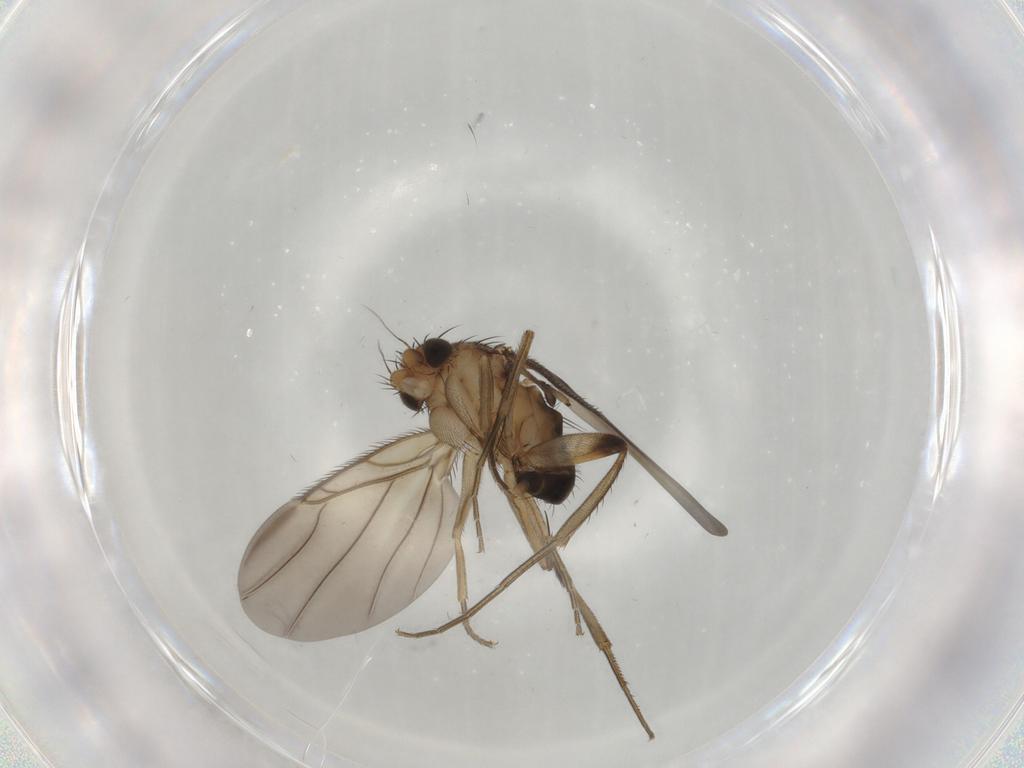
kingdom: Animalia
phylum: Arthropoda
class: Insecta
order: Diptera
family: Phoridae
